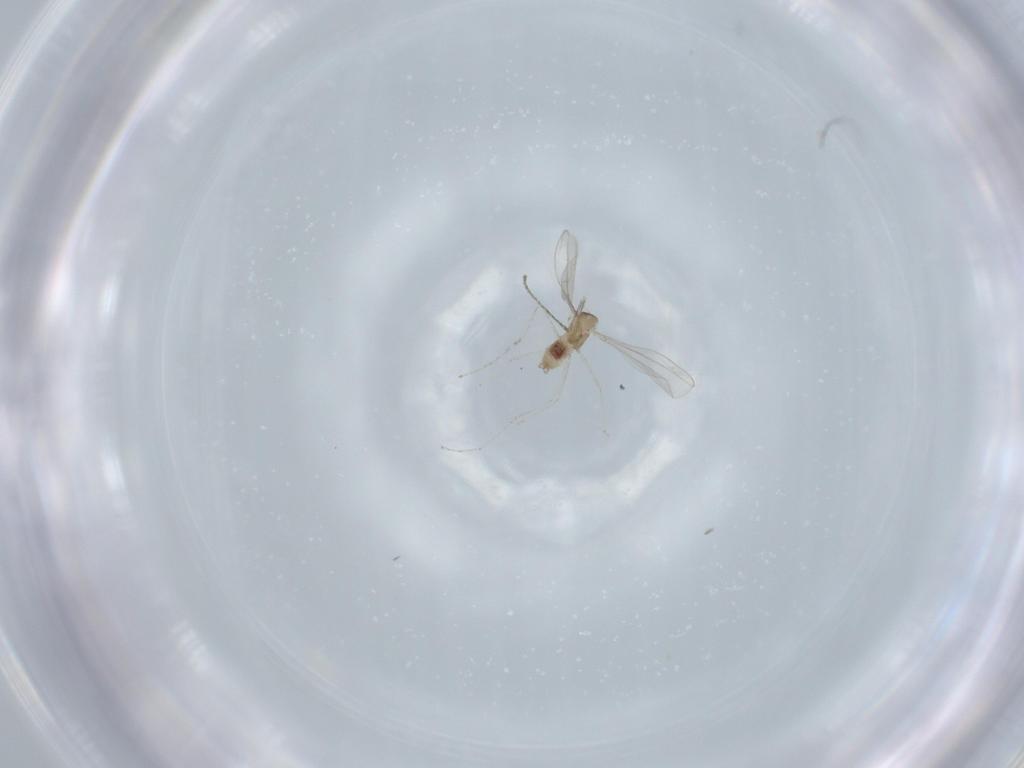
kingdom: Animalia
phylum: Arthropoda
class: Insecta
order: Diptera
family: Cecidomyiidae
